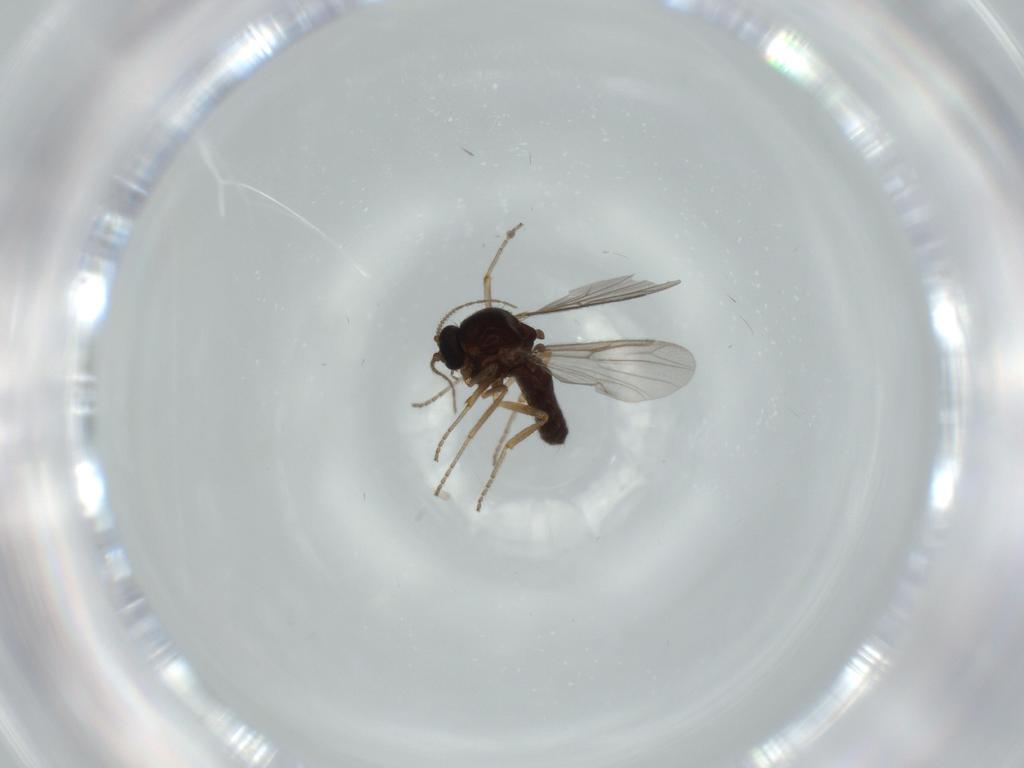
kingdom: Animalia
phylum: Arthropoda
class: Insecta
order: Diptera
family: Ceratopogonidae
